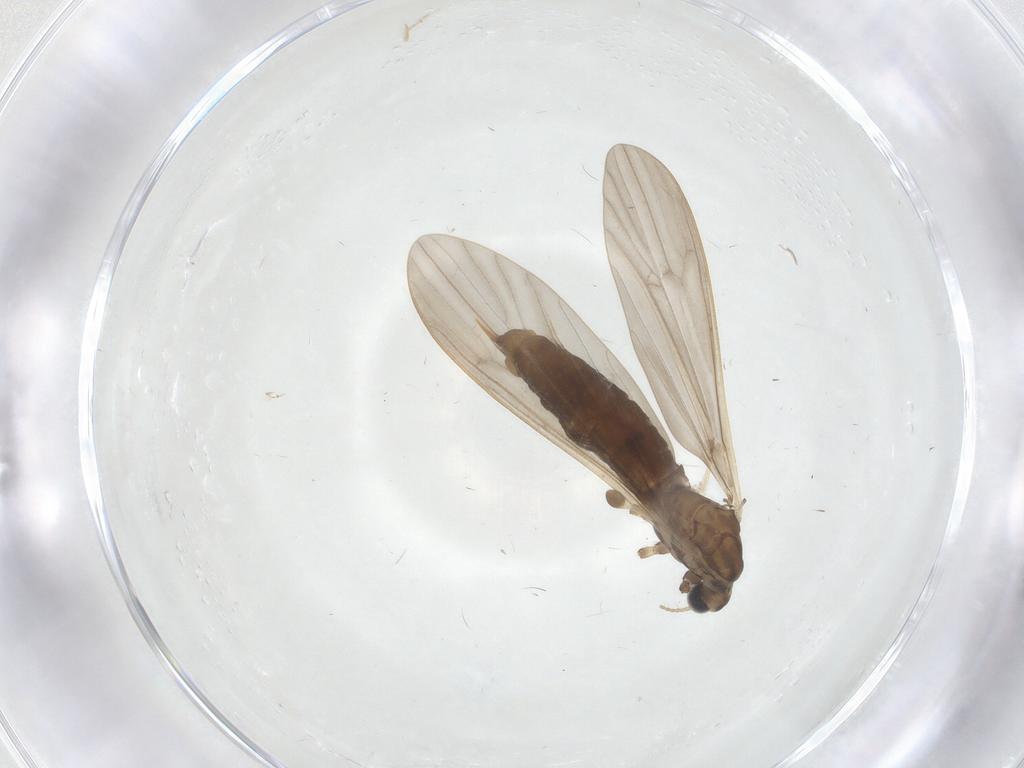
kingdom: Animalia
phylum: Arthropoda
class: Insecta
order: Diptera
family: Limoniidae
